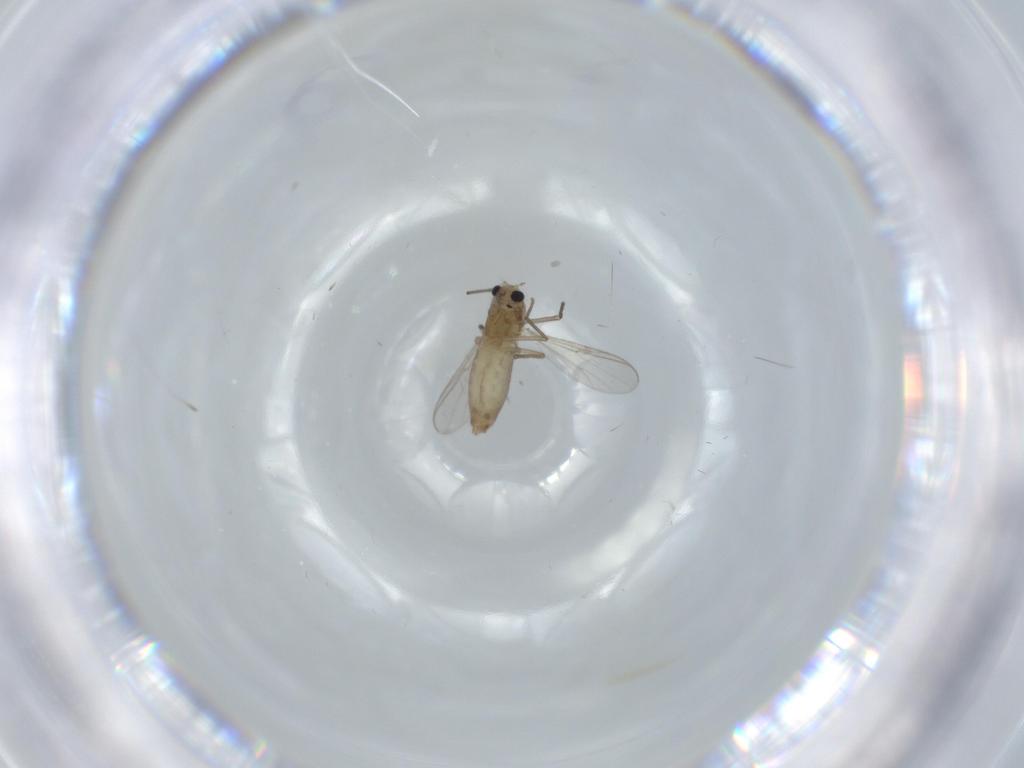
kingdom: Animalia
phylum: Arthropoda
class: Insecta
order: Diptera
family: Chironomidae
